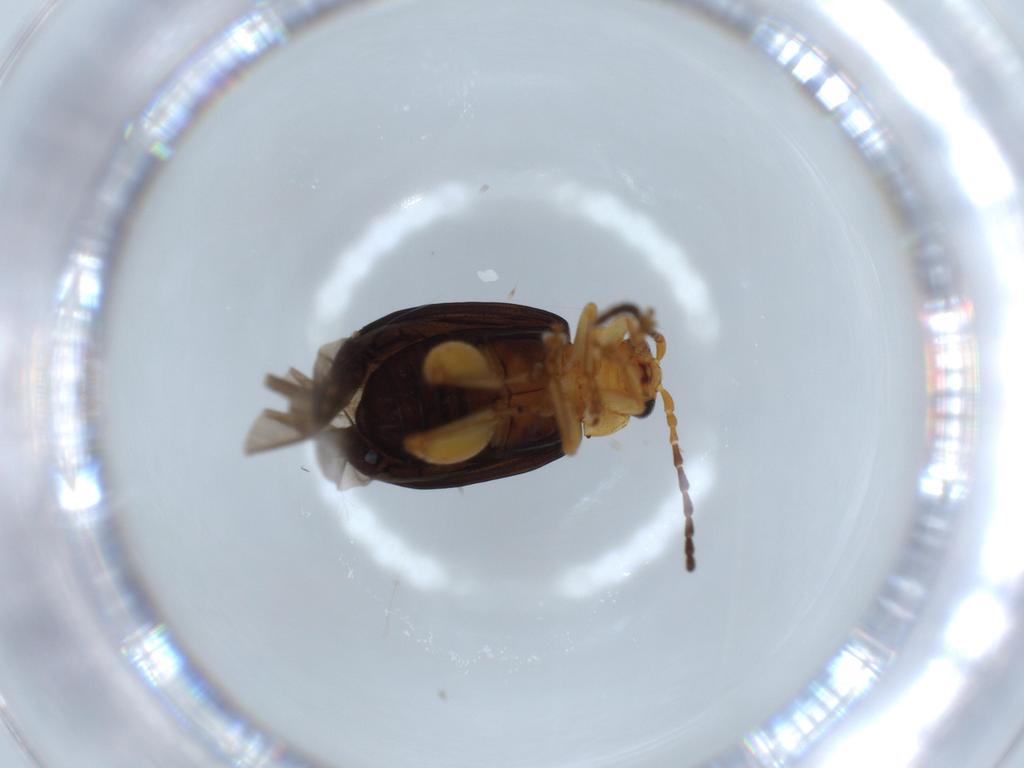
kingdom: Animalia
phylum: Arthropoda
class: Insecta
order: Coleoptera
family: Chrysomelidae
